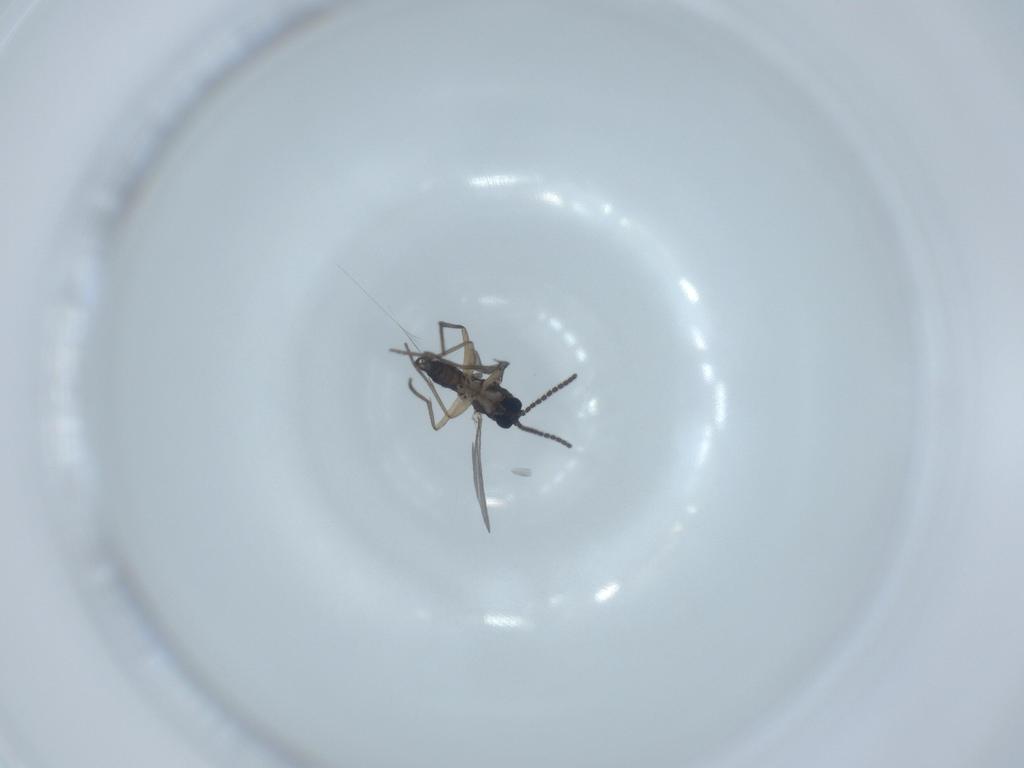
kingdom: Animalia
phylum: Arthropoda
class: Insecta
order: Diptera
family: Sciaridae
